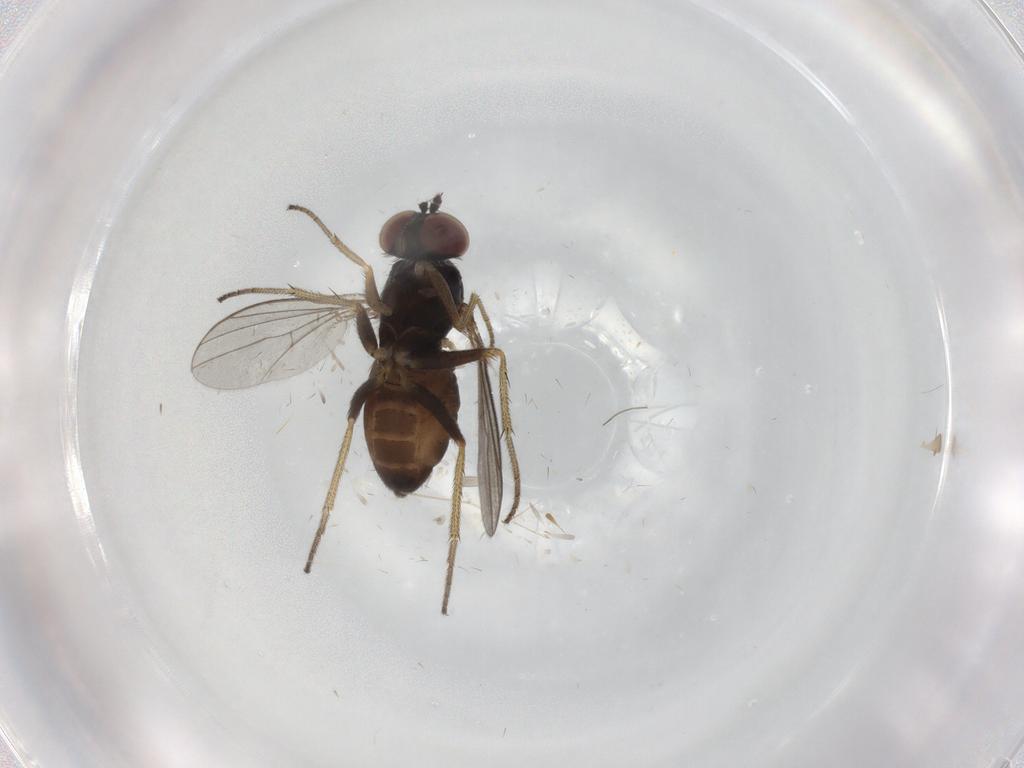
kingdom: Animalia
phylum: Arthropoda
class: Insecta
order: Diptera
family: Dolichopodidae
